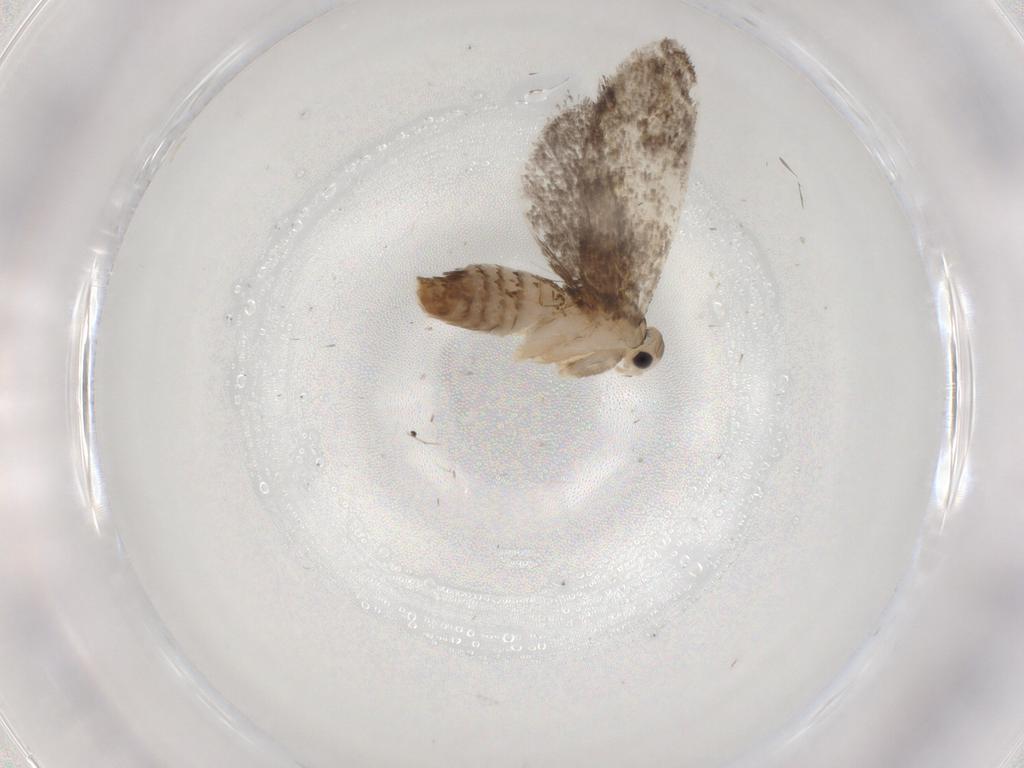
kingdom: Animalia
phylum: Arthropoda
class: Insecta
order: Lepidoptera
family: Tineidae
